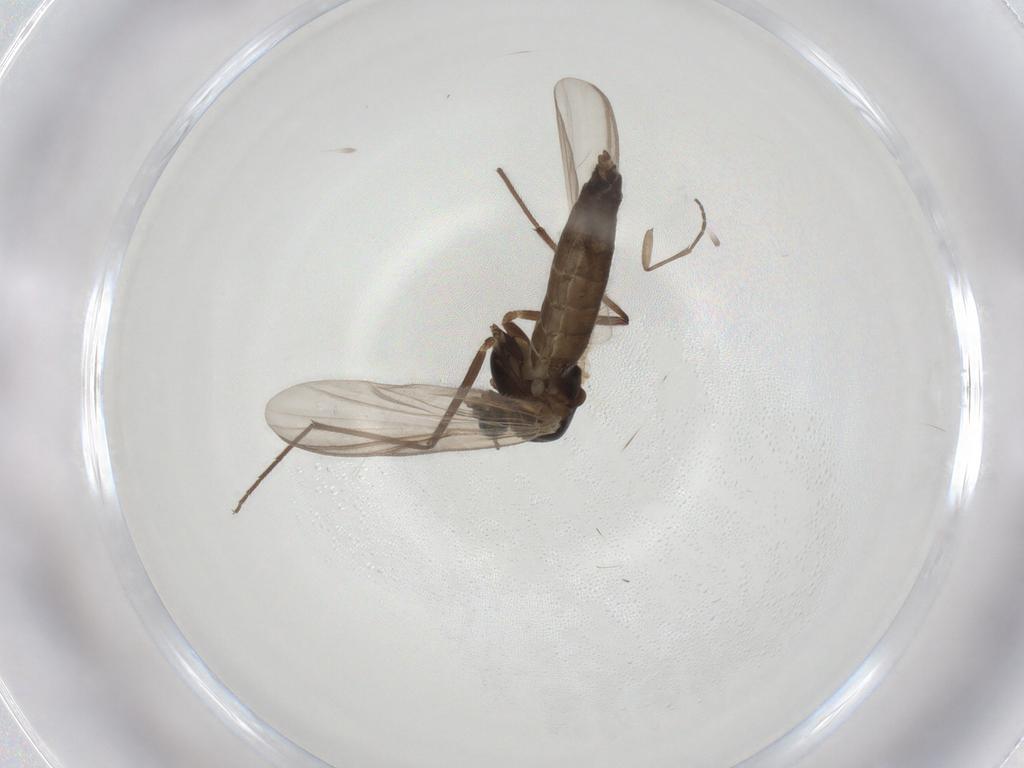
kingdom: Animalia
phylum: Arthropoda
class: Insecta
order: Diptera
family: Chironomidae
